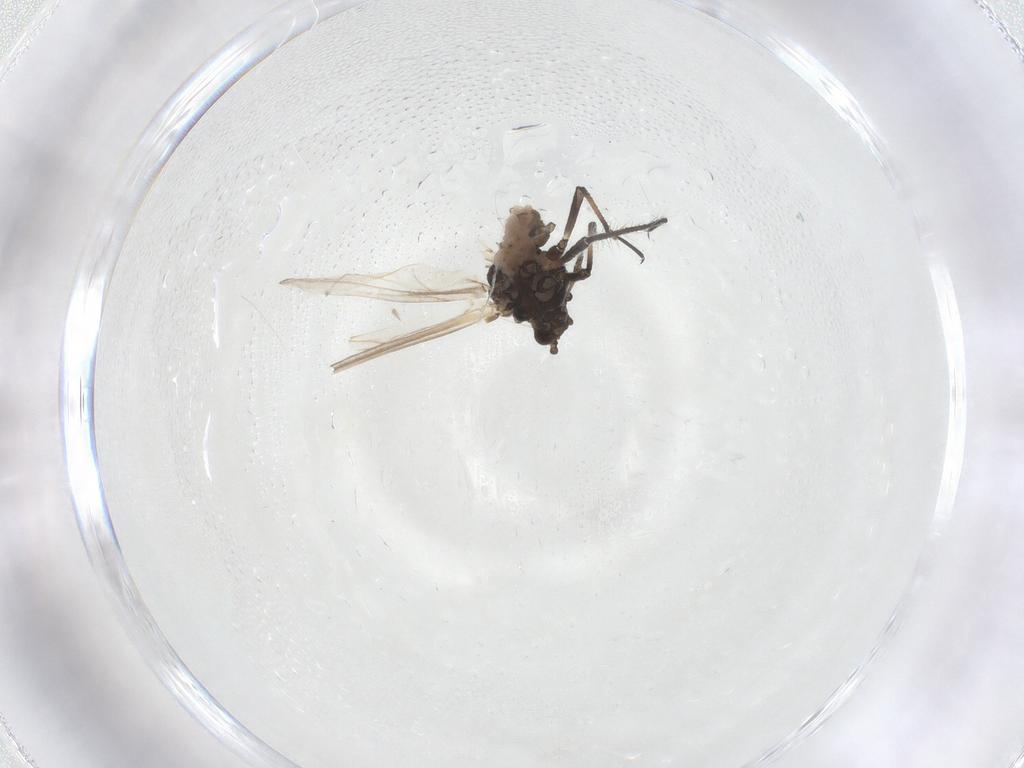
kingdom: Animalia
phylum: Arthropoda
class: Insecta
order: Hemiptera
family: Aphididae
